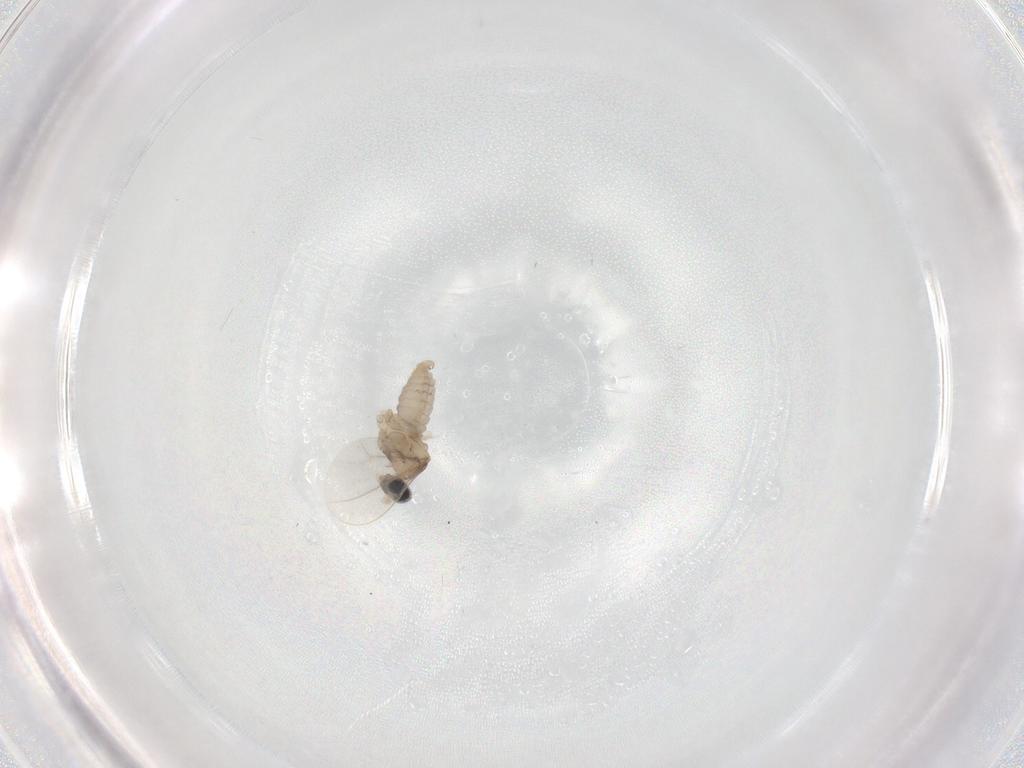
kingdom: Animalia
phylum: Arthropoda
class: Insecta
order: Diptera
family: Cecidomyiidae
